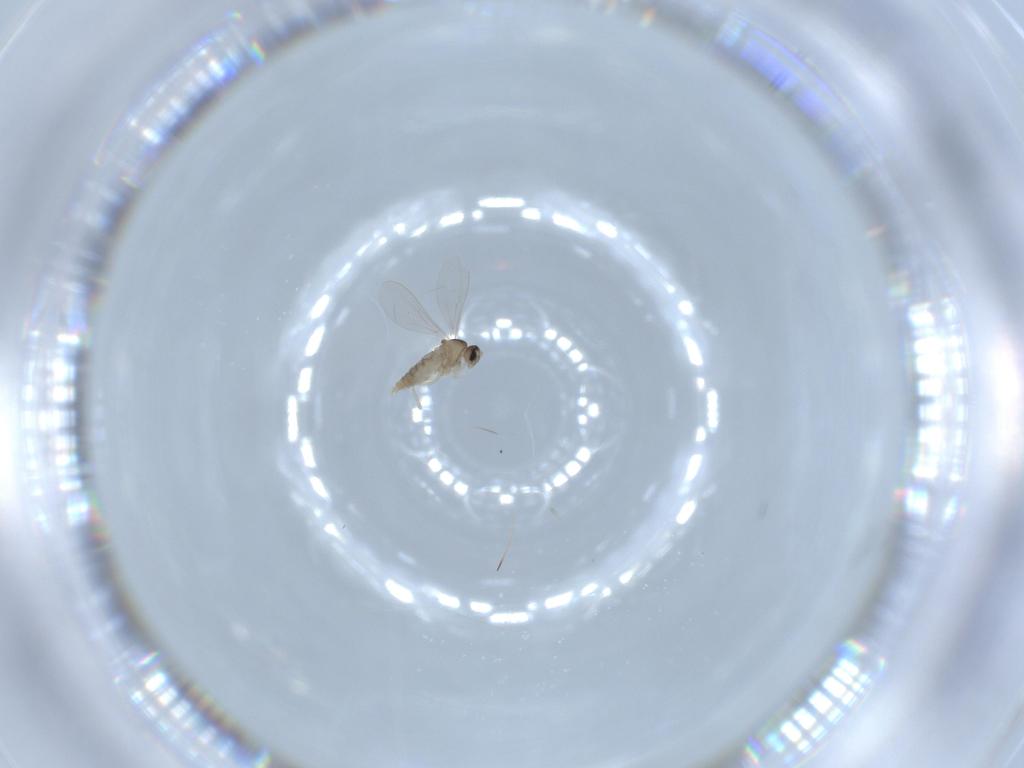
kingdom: Animalia
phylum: Arthropoda
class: Insecta
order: Diptera
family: Cecidomyiidae
